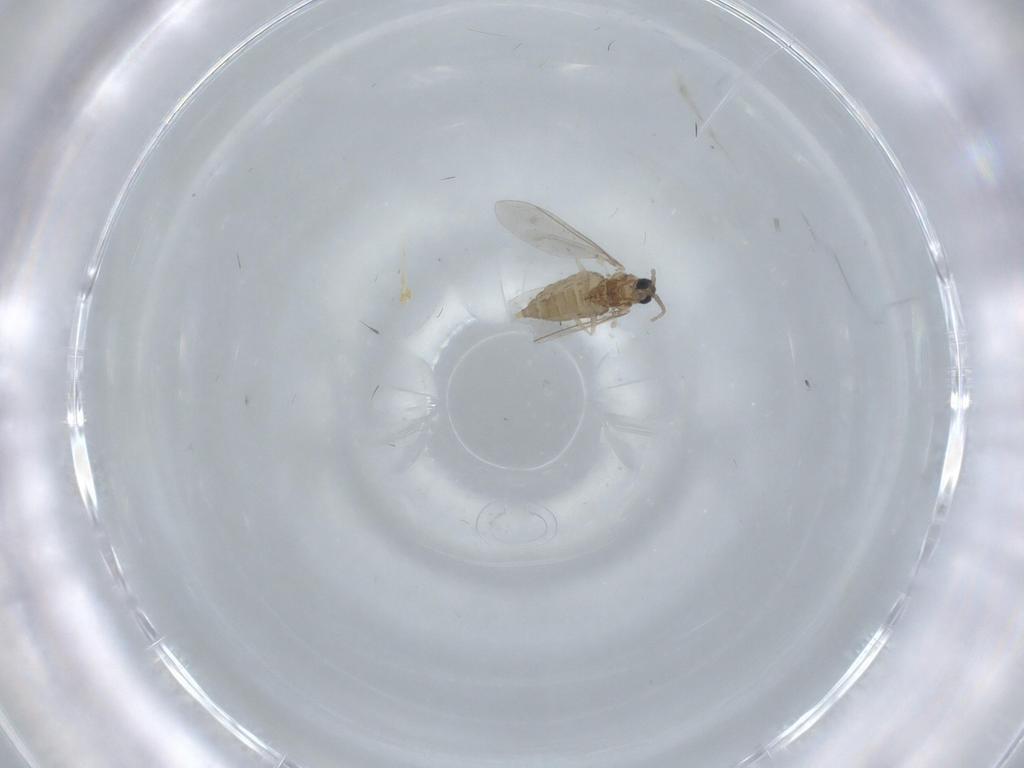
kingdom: Animalia
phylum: Arthropoda
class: Insecta
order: Diptera
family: Cecidomyiidae
